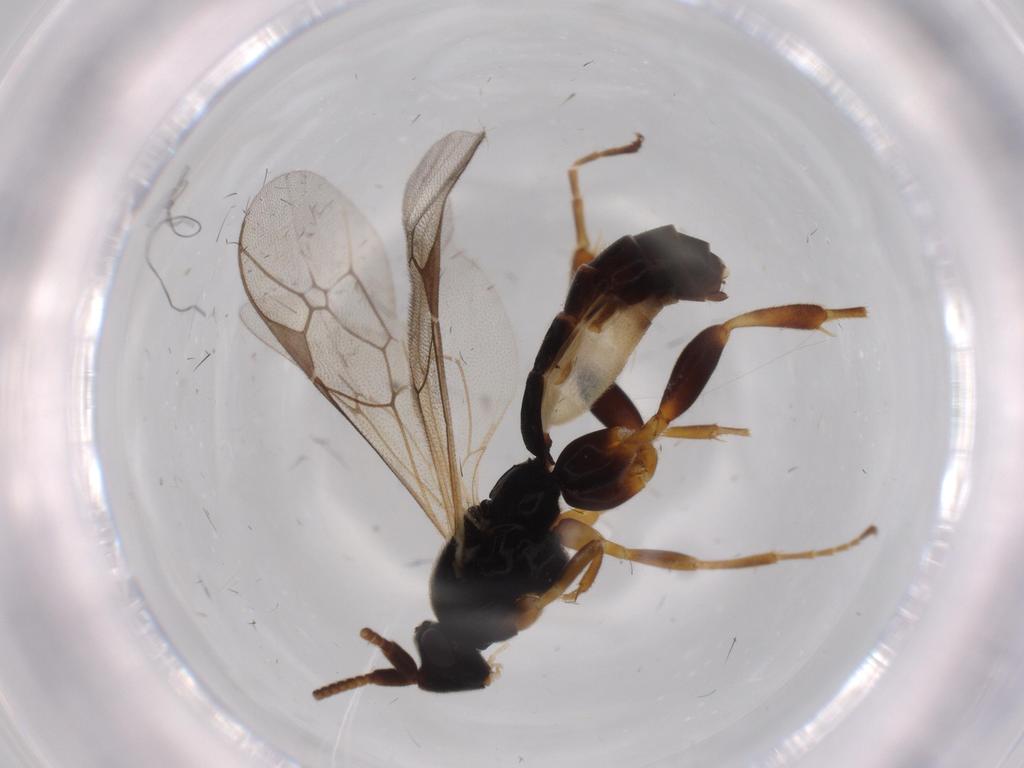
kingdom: Animalia
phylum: Arthropoda
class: Insecta
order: Hymenoptera
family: Ichneumonidae
